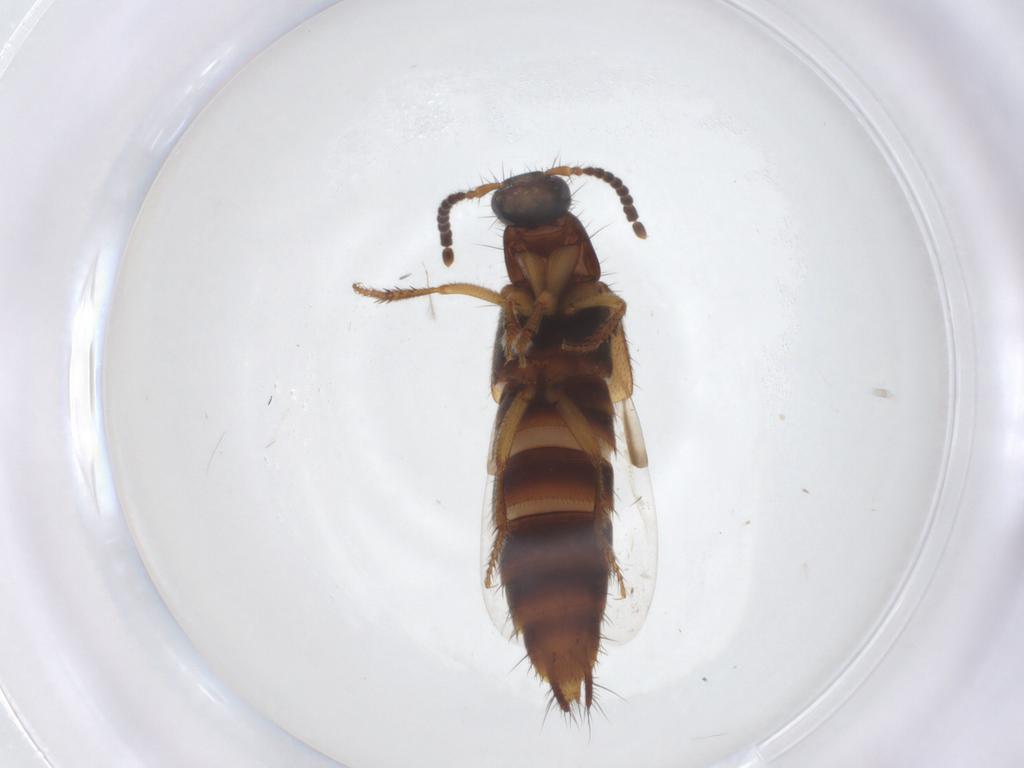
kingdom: Animalia
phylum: Arthropoda
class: Insecta
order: Coleoptera
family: Staphylinidae
